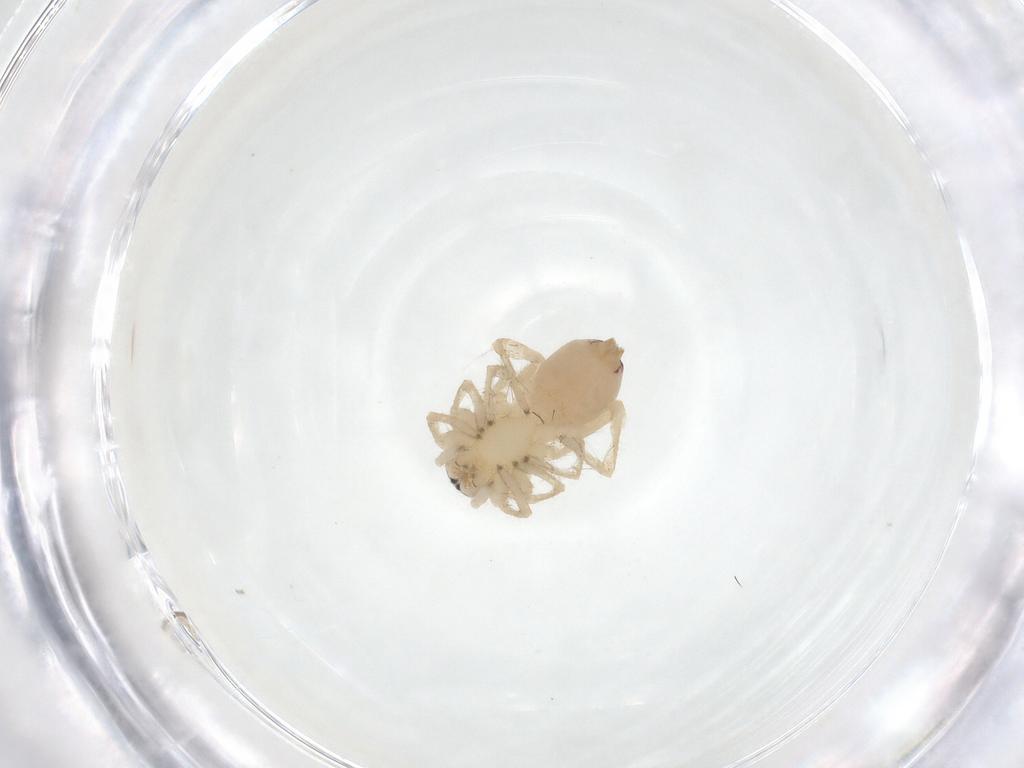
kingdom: Animalia
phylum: Arthropoda
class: Arachnida
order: Araneae
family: Clubionidae
